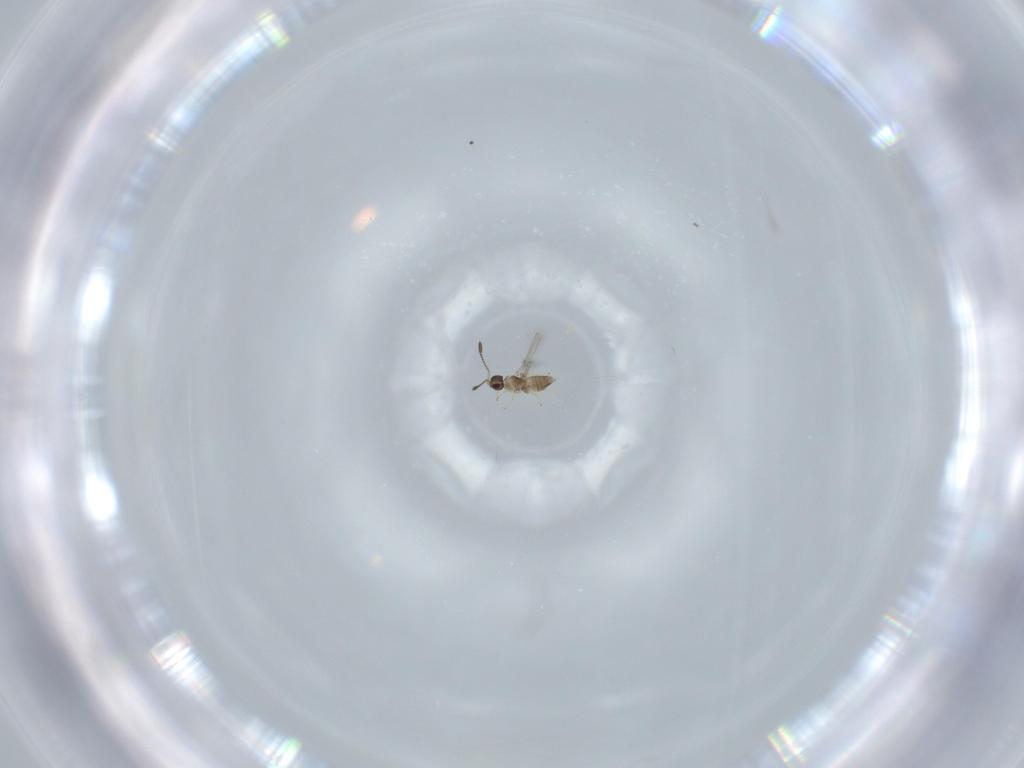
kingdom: Animalia
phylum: Arthropoda
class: Insecta
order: Hymenoptera
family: Mymaridae
